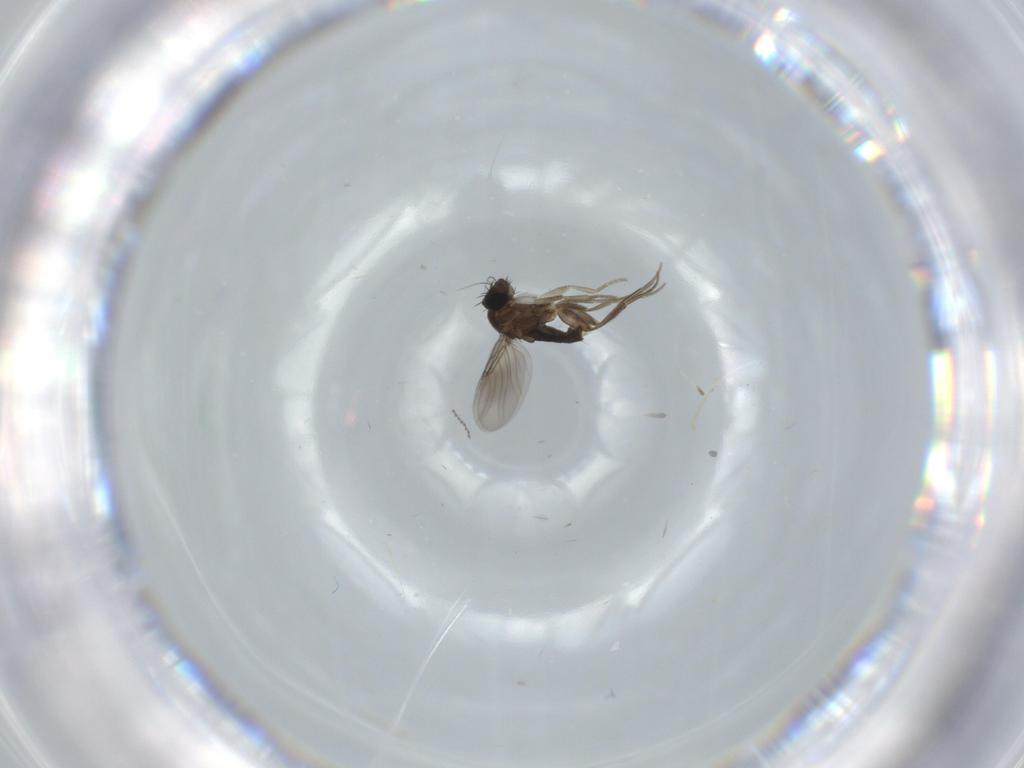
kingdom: Animalia
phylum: Arthropoda
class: Insecta
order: Diptera
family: Phoridae
